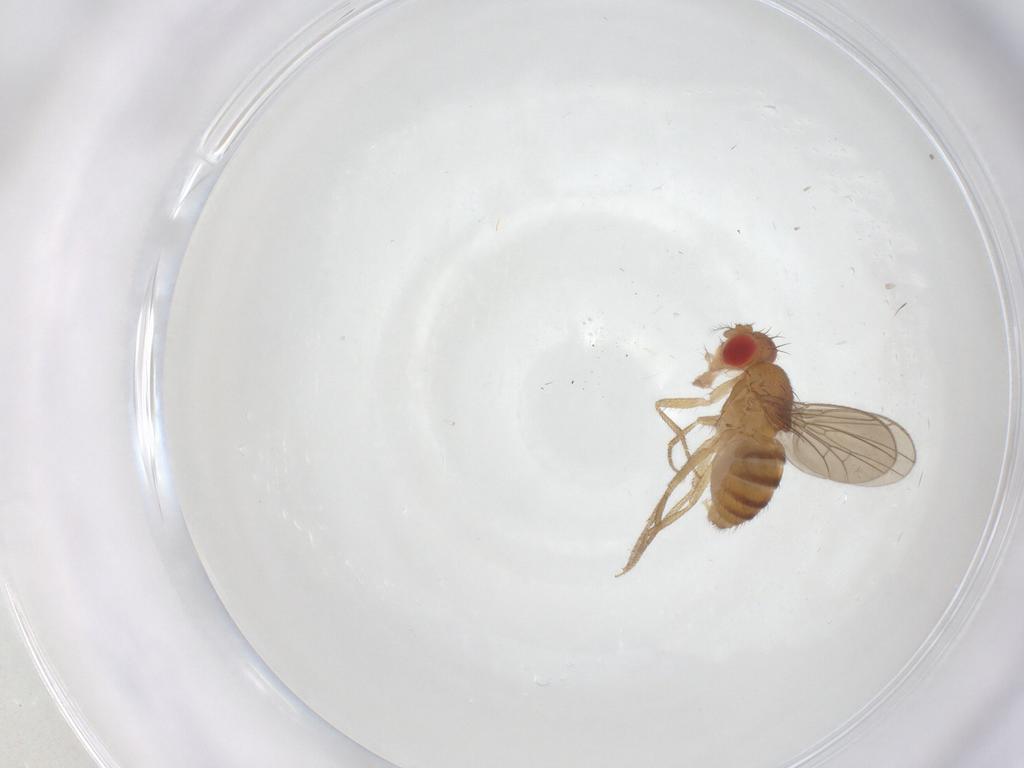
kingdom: Animalia
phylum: Arthropoda
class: Insecta
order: Diptera
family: Drosophilidae
